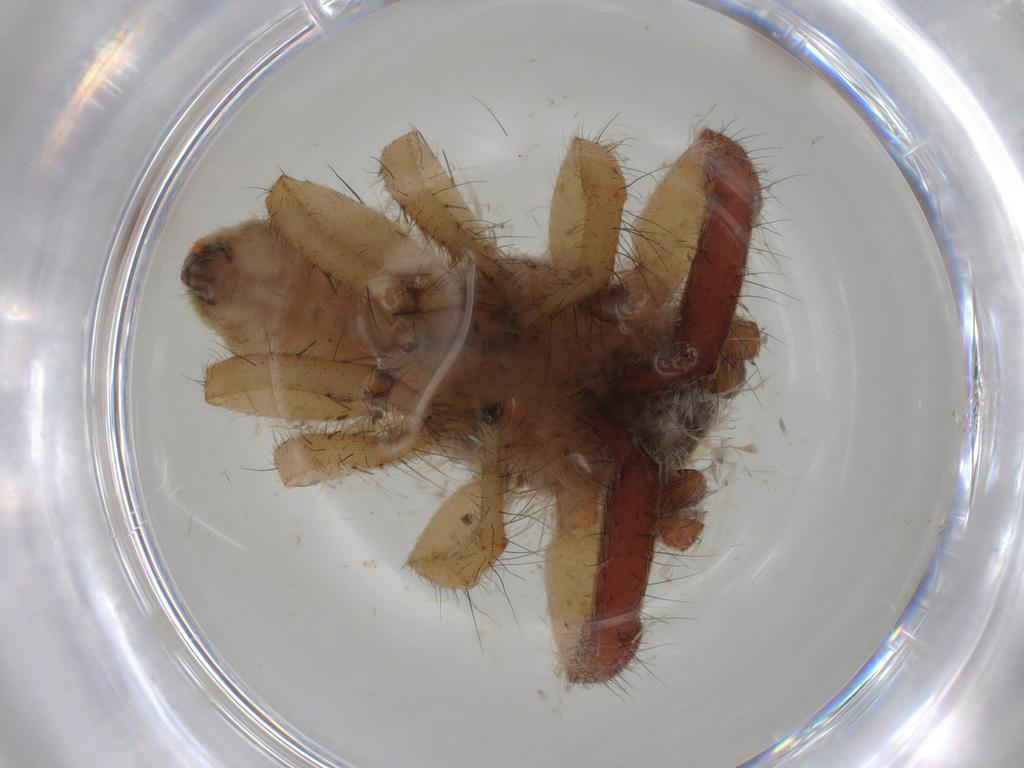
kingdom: Animalia
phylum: Arthropoda
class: Arachnida
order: Araneae
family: Salticidae
